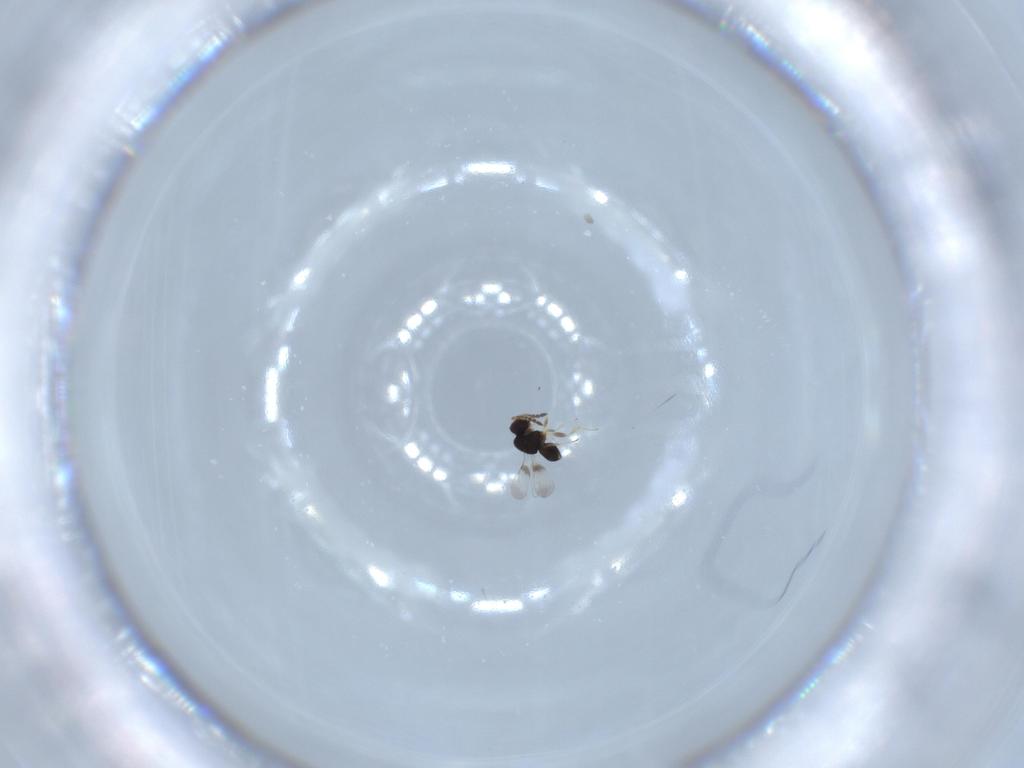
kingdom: Animalia
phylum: Arthropoda
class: Insecta
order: Hymenoptera
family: Ceraphronidae
